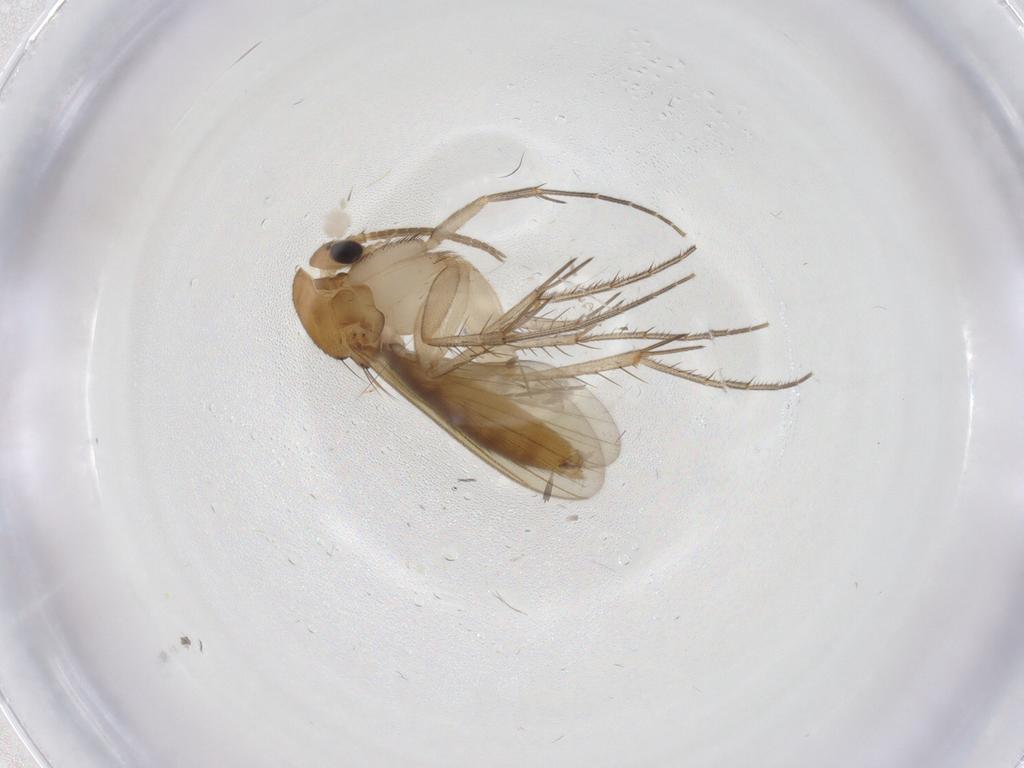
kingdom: Animalia
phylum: Arthropoda
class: Insecta
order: Diptera
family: Mycetophilidae
